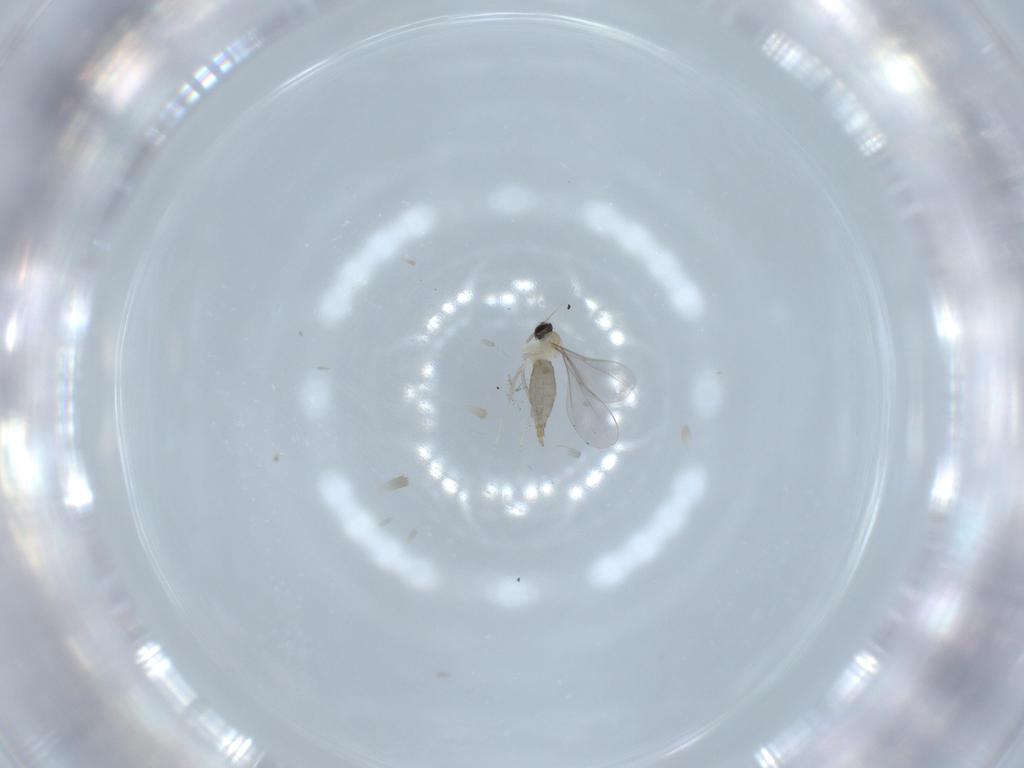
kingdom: Animalia
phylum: Arthropoda
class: Insecta
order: Diptera
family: Cecidomyiidae
